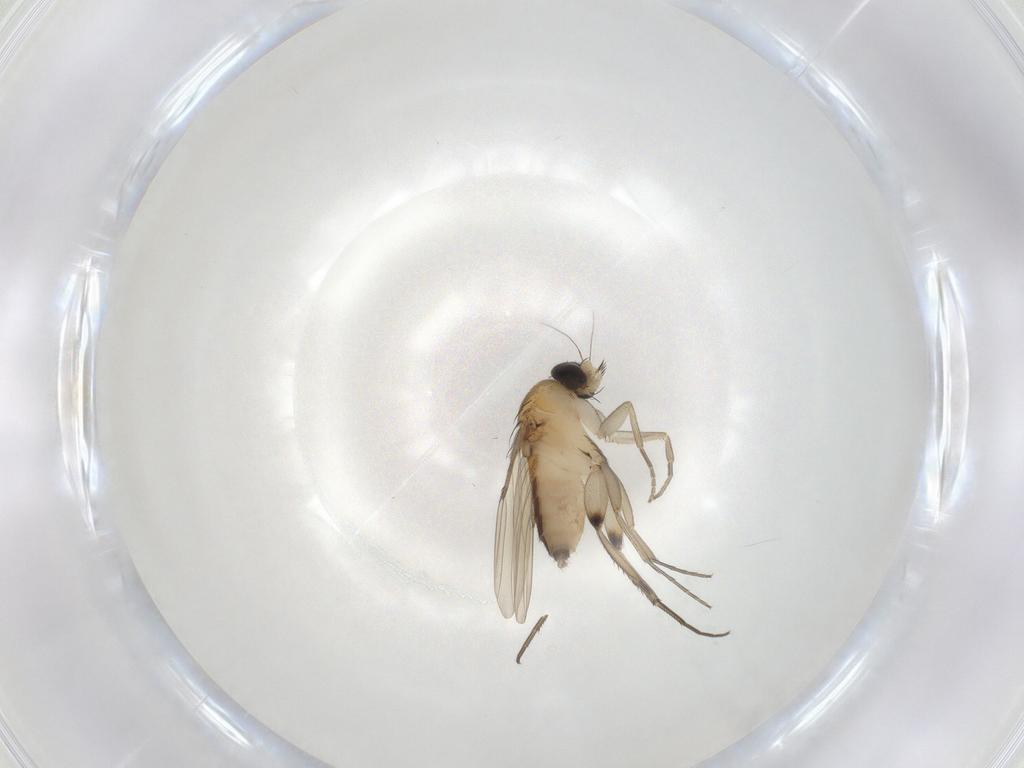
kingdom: Animalia
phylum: Arthropoda
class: Insecta
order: Diptera
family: Phoridae
